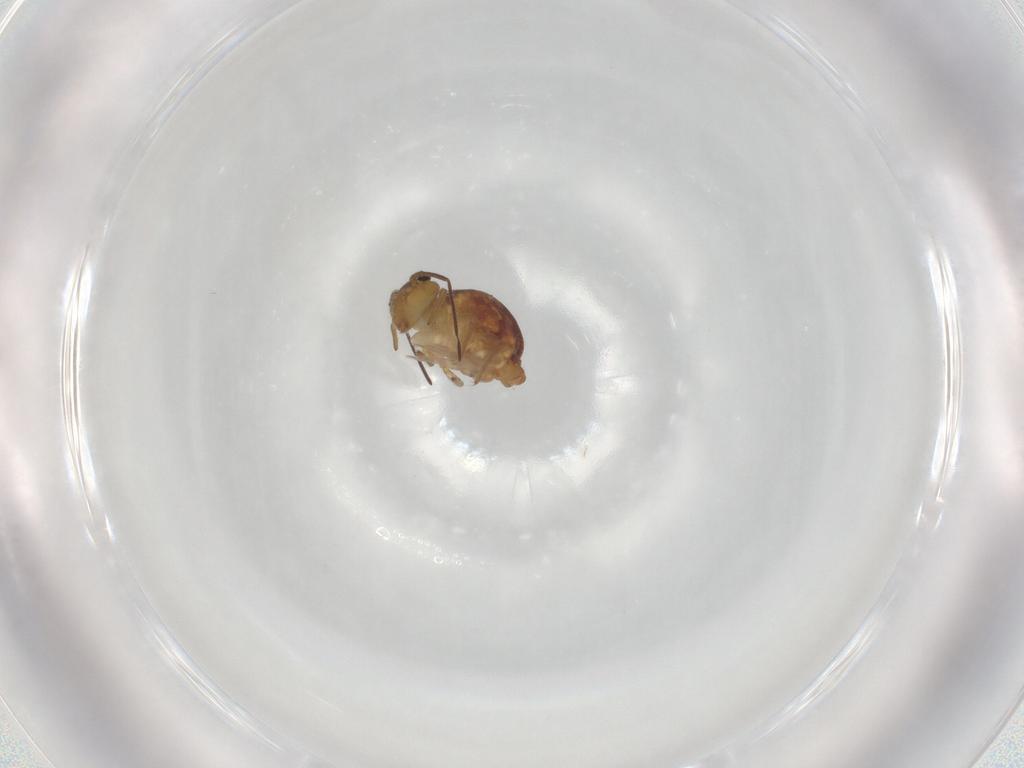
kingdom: Animalia
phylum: Arthropoda
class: Collembola
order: Symphypleona
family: Sminthuridae
